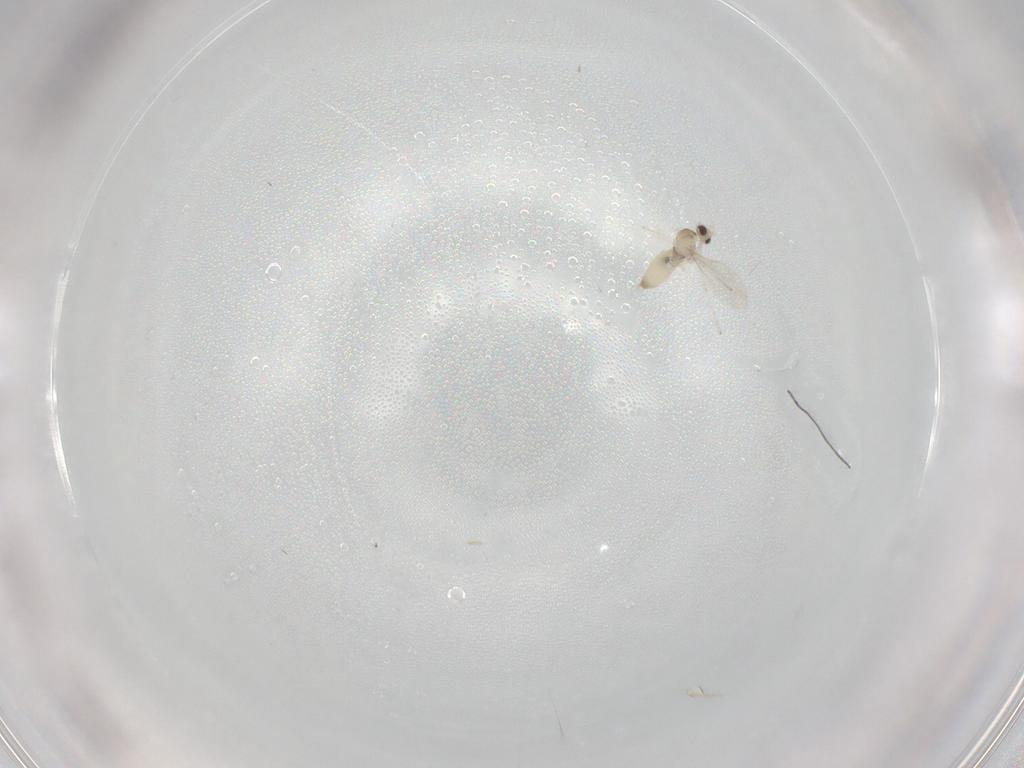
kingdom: Animalia
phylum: Arthropoda
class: Insecta
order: Diptera
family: Cecidomyiidae
